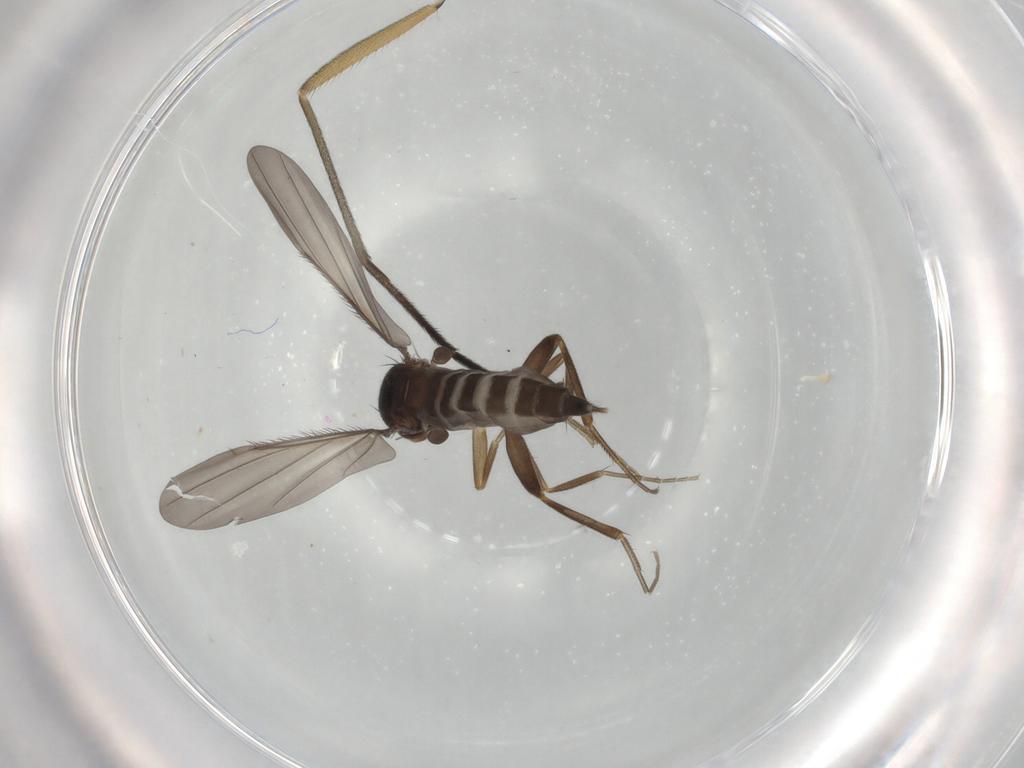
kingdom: Animalia
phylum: Arthropoda
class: Insecta
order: Diptera
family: Sciaridae
